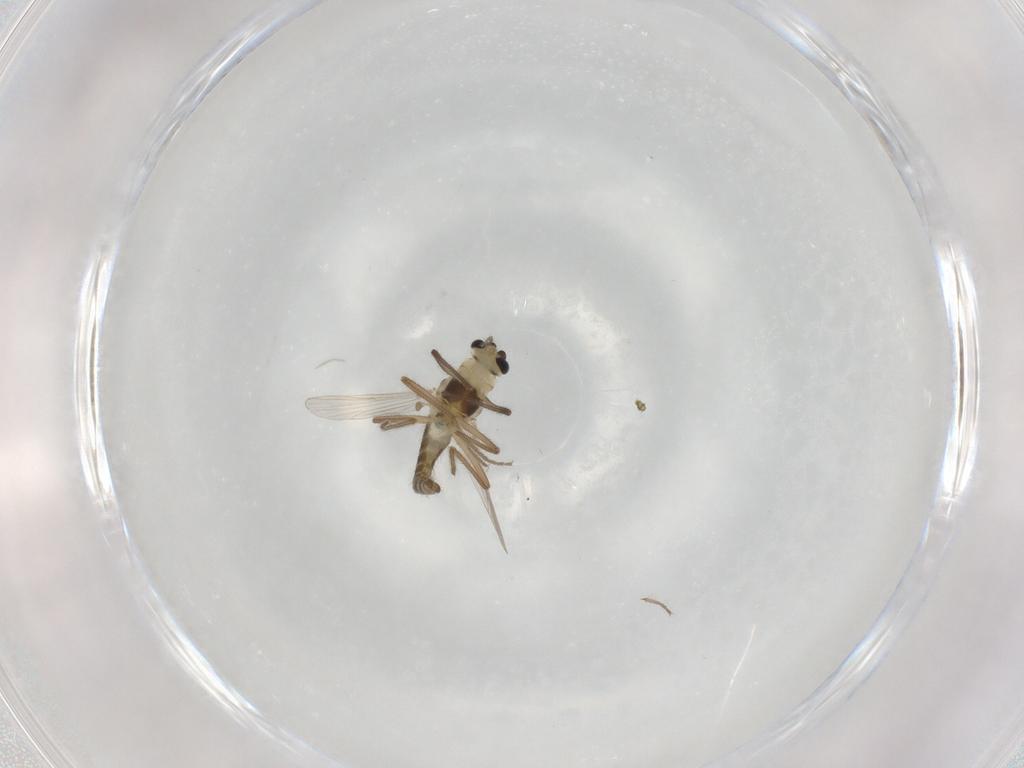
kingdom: Animalia
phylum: Arthropoda
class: Insecta
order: Diptera
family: Chironomidae
